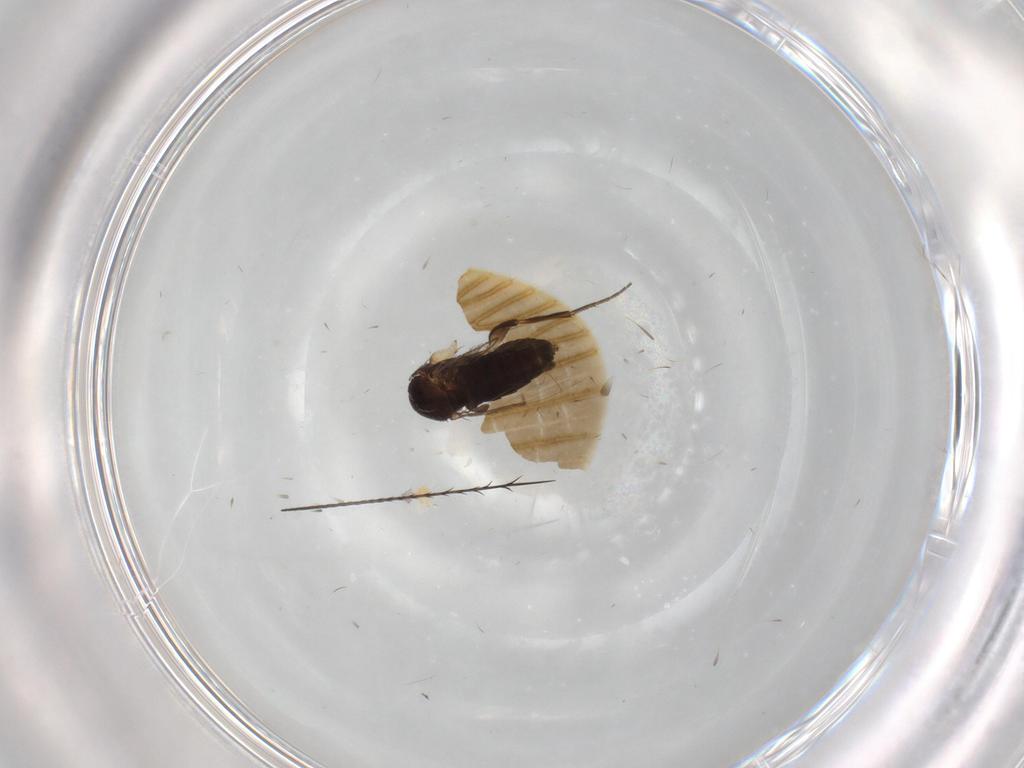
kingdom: Animalia
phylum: Arthropoda
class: Insecta
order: Diptera
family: Phoridae
